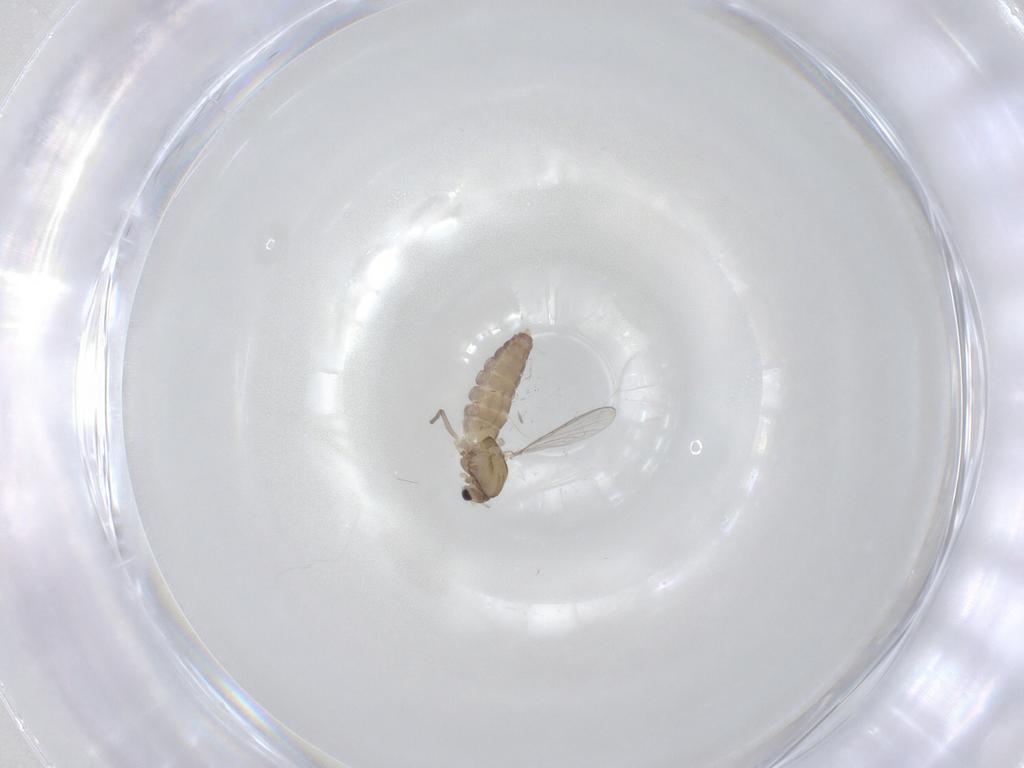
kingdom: Animalia
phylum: Arthropoda
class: Insecta
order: Diptera
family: Chironomidae
